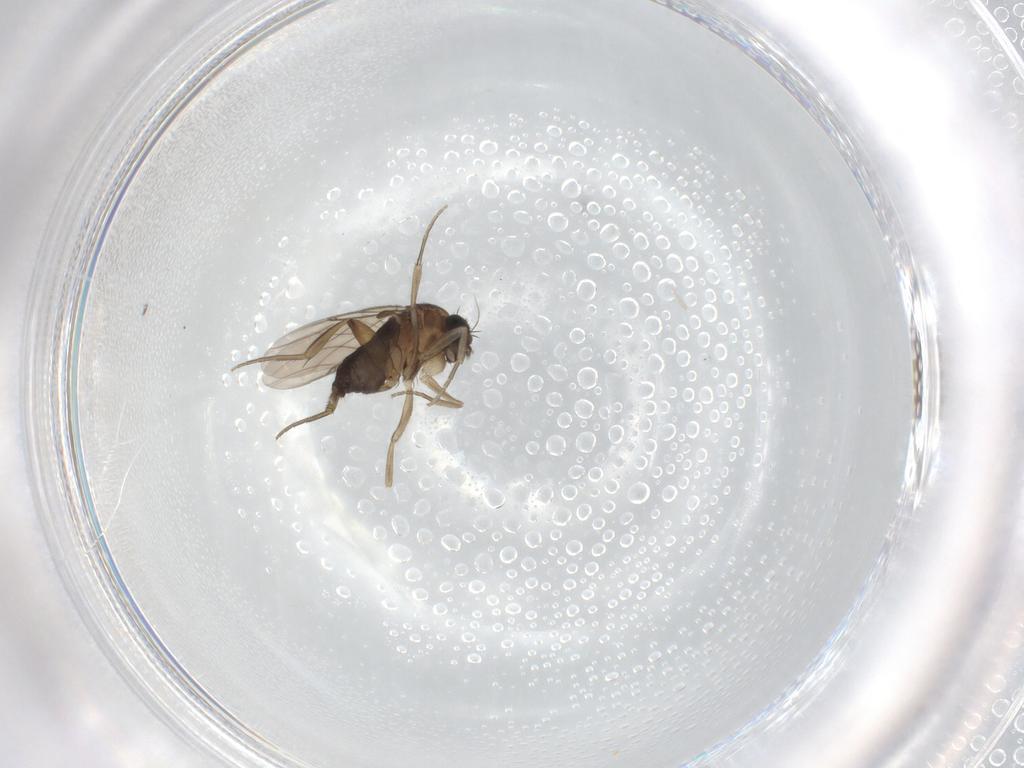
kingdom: Animalia
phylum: Arthropoda
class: Insecta
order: Diptera
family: Phoridae
